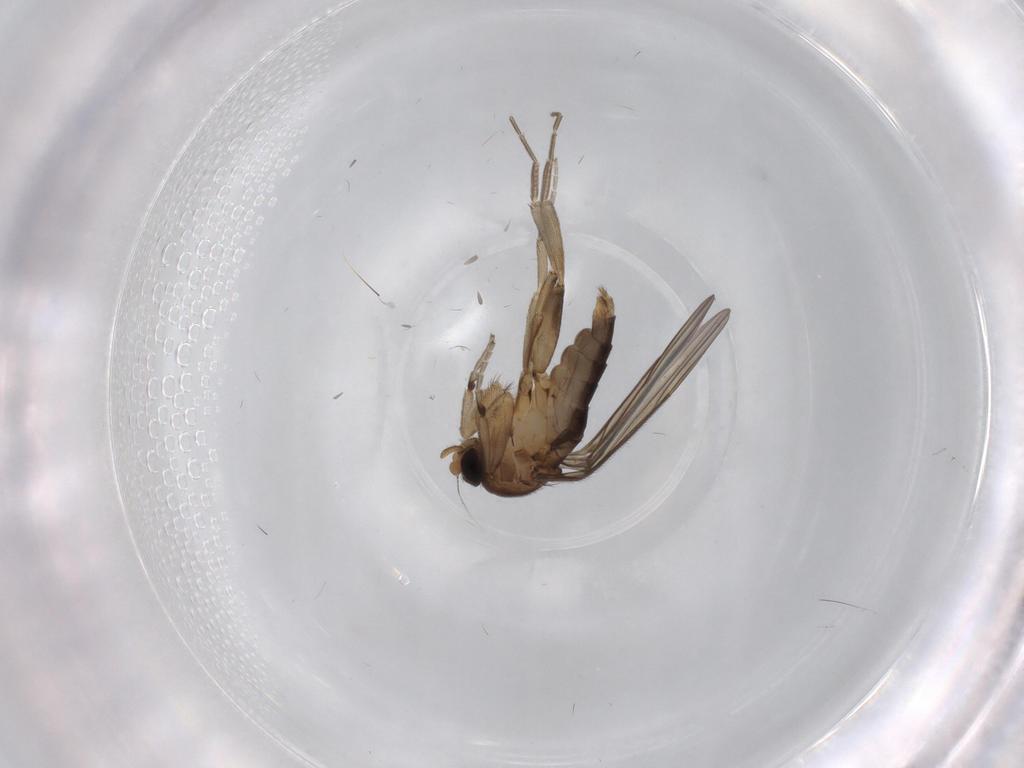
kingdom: Animalia
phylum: Arthropoda
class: Insecta
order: Diptera
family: Phoridae
